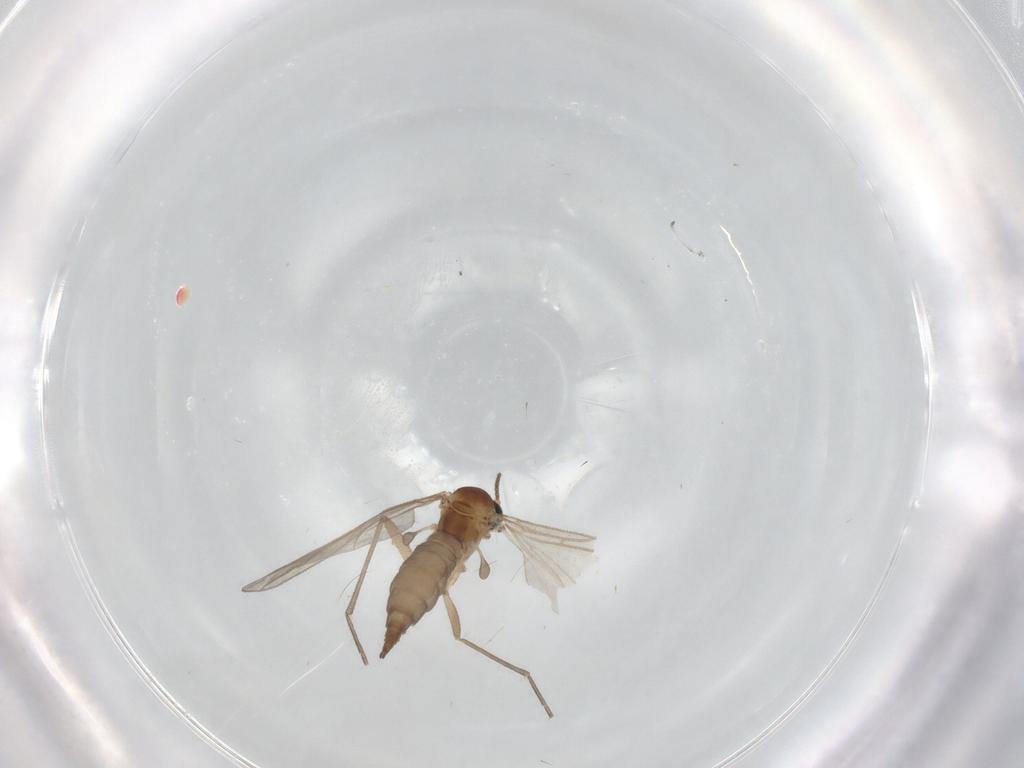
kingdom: Animalia
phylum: Arthropoda
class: Insecta
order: Diptera
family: Sciaridae
